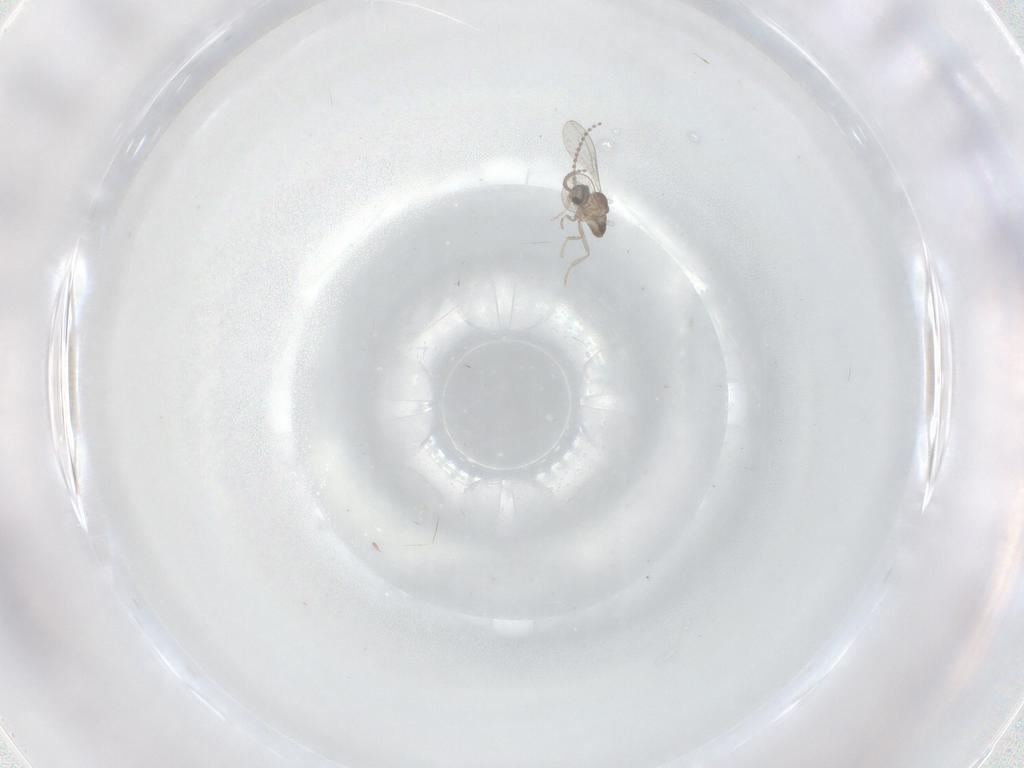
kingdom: Animalia
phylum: Arthropoda
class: Insecta
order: Diptera
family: Cecidomyiidae
